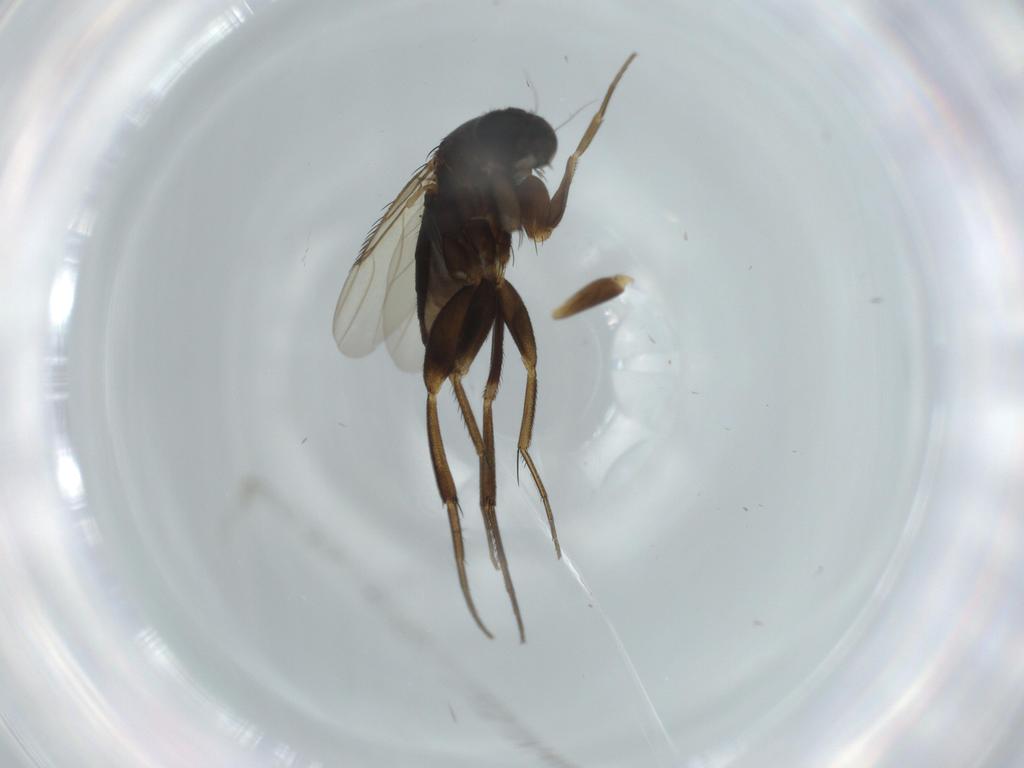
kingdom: Animalia
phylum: Arthropoda
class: Insecta
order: Diptera
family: Phoridae
